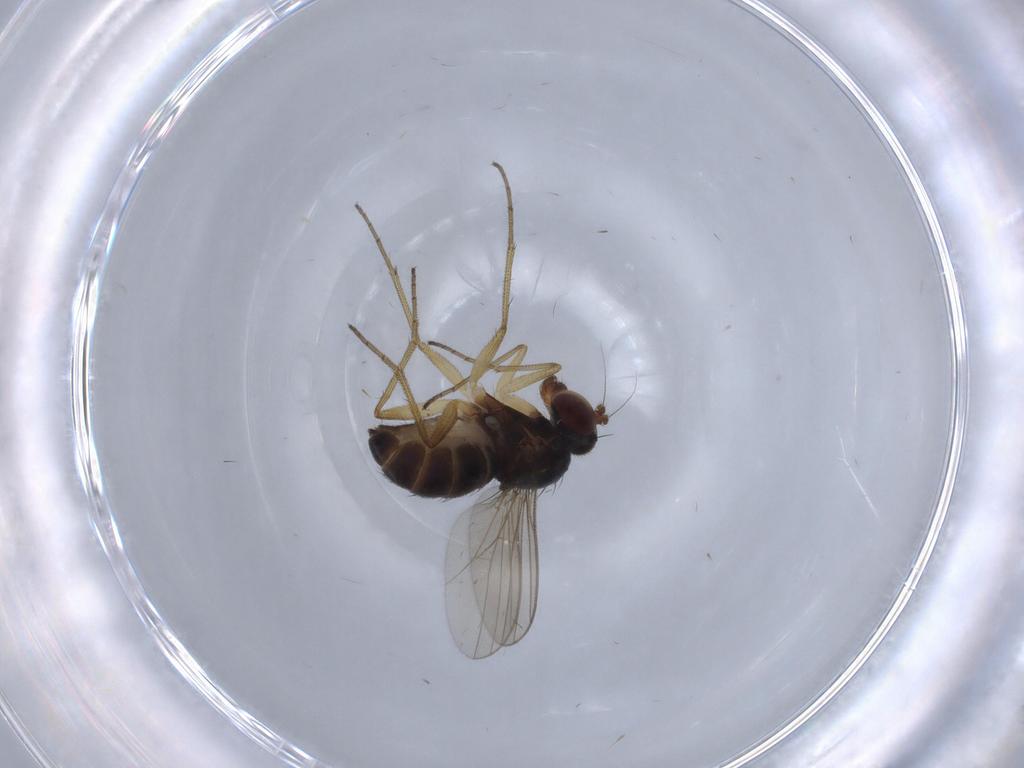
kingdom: Animalia
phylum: Arthropoda
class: Insecta
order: Diptera
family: Dolichopodidae
